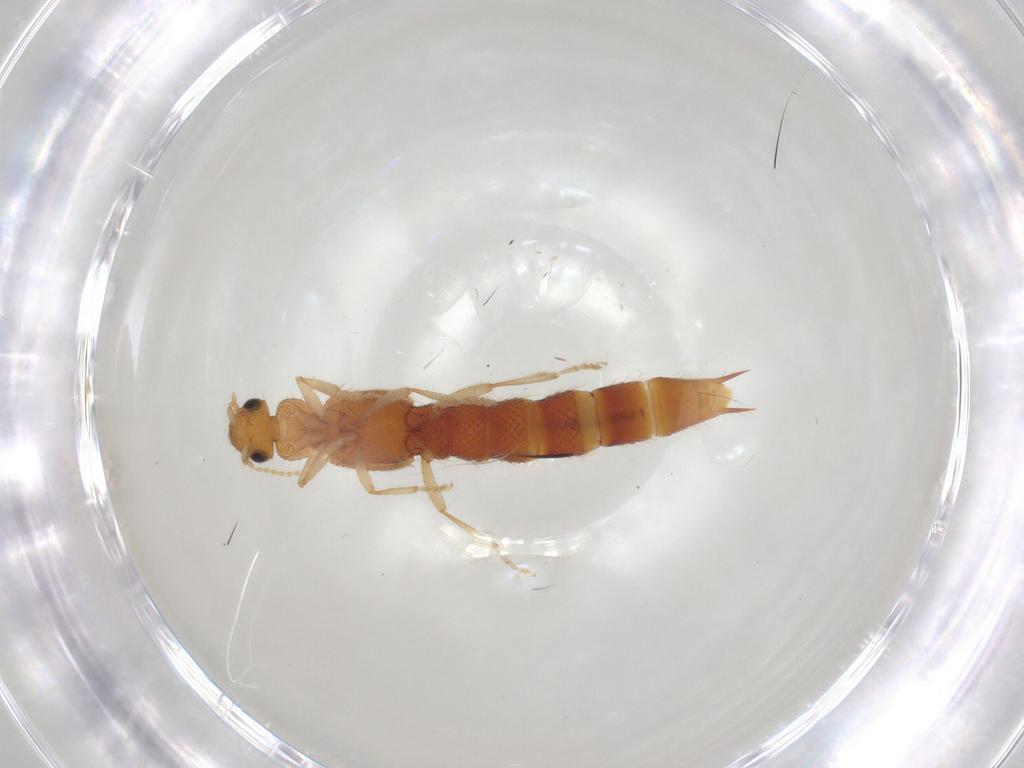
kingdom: Animalia
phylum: Arthropoda
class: Insecta
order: Coleoptera
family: Staphylinidae
